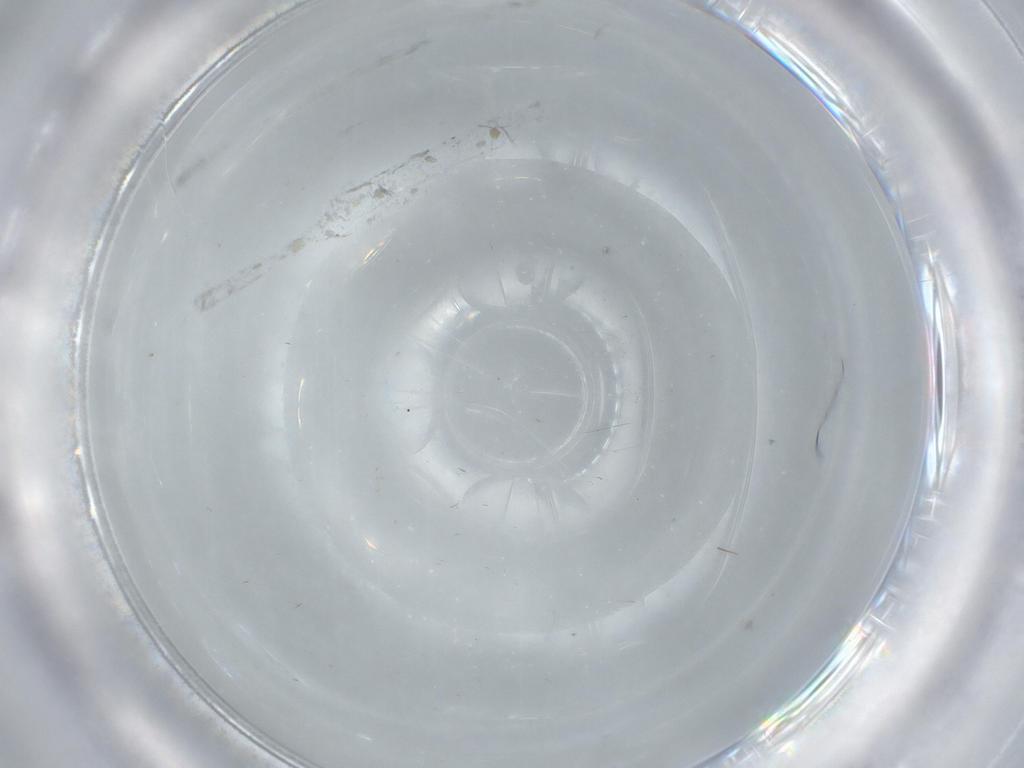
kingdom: Animalia
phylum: Arthropoda
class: Insecta
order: Diptera
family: Cecidomyiidae
